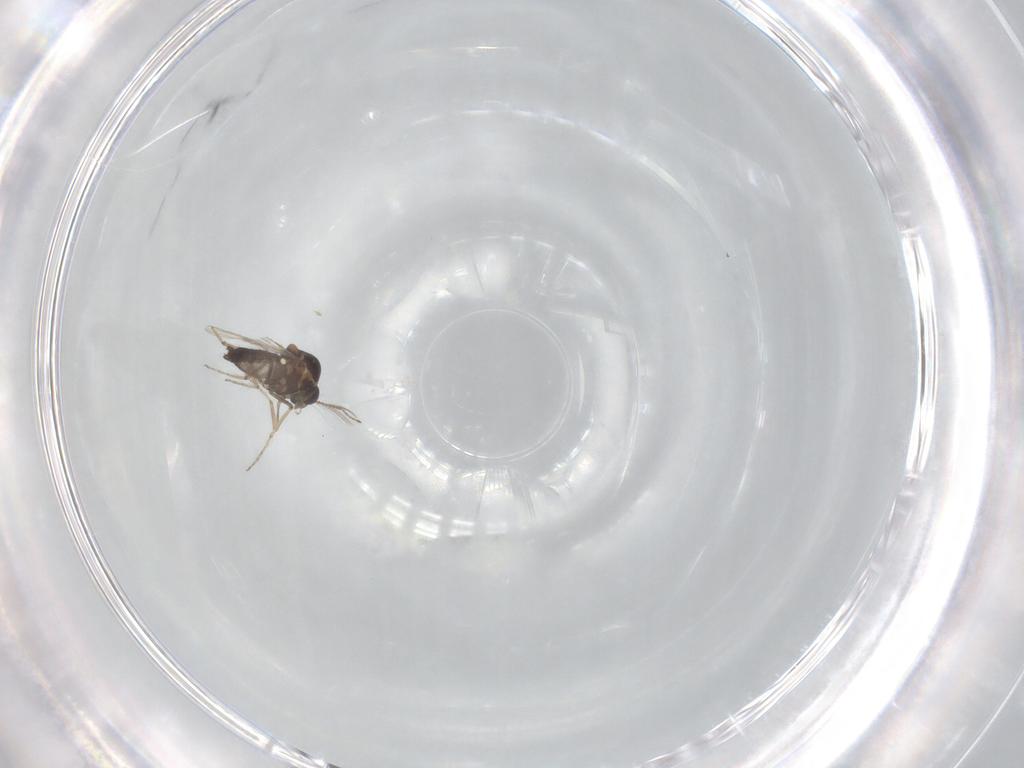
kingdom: Animalia
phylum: Arthropoda
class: Insecta
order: Diptera
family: Ceratopogonidae
